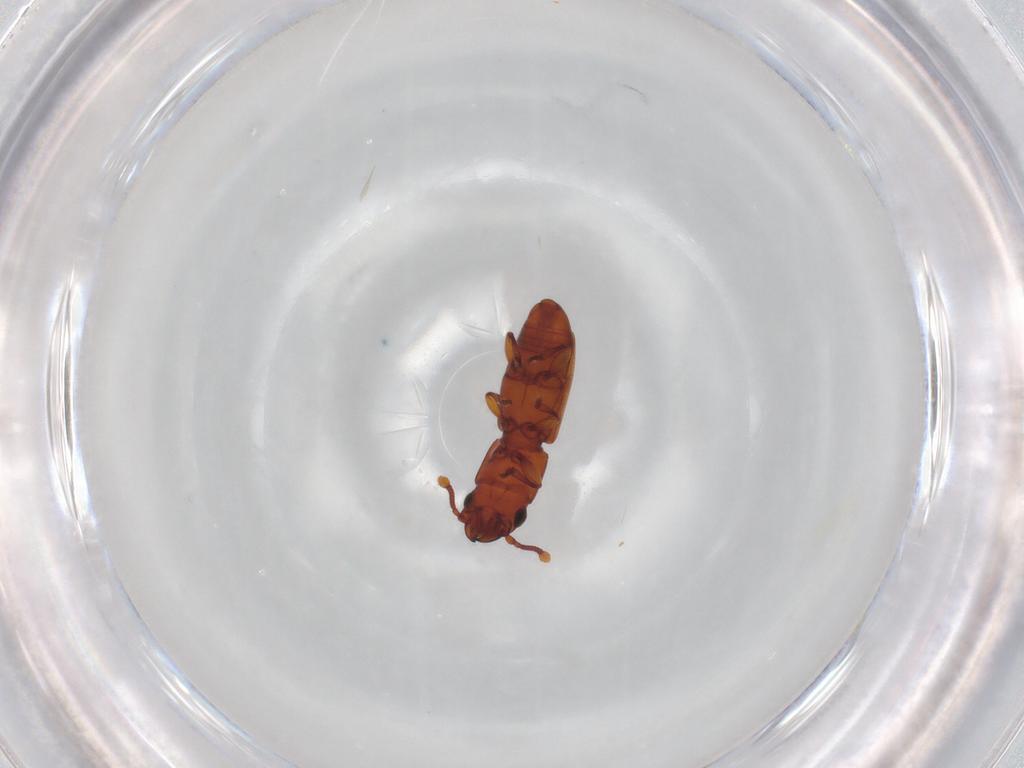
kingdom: Animalia
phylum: Arthropoda
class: Insecta
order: Coleoptera
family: Monotomidae
